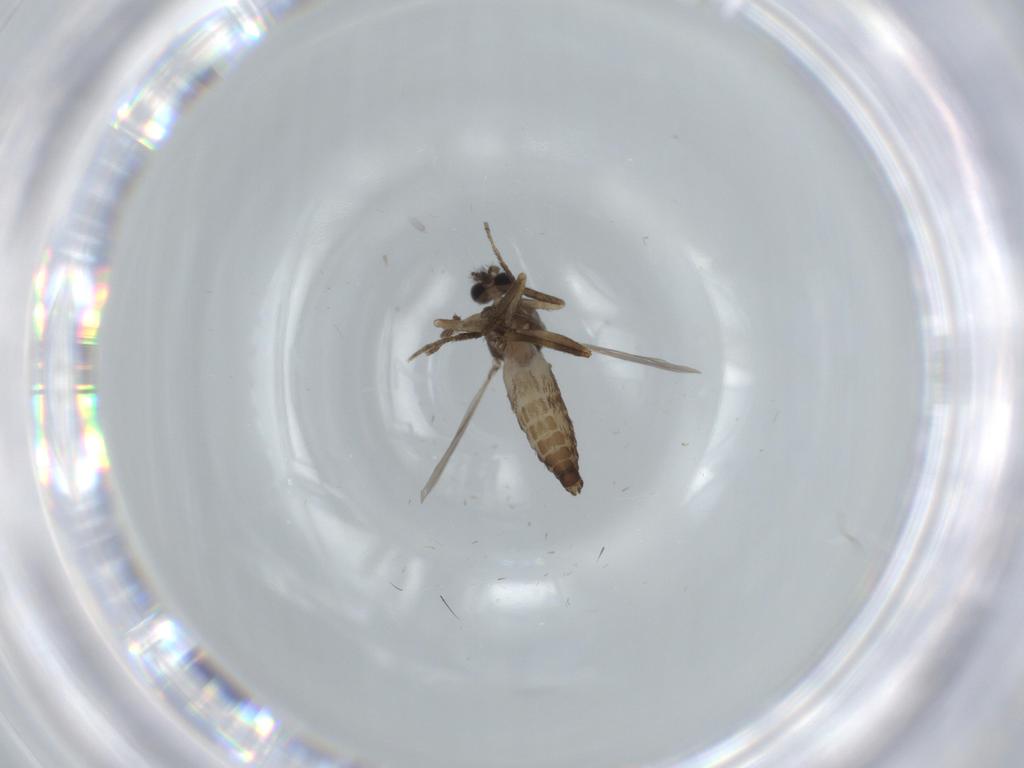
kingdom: Animalia
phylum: Arthropoda
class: Insecta
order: Diptera
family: Ceratopogonidae
